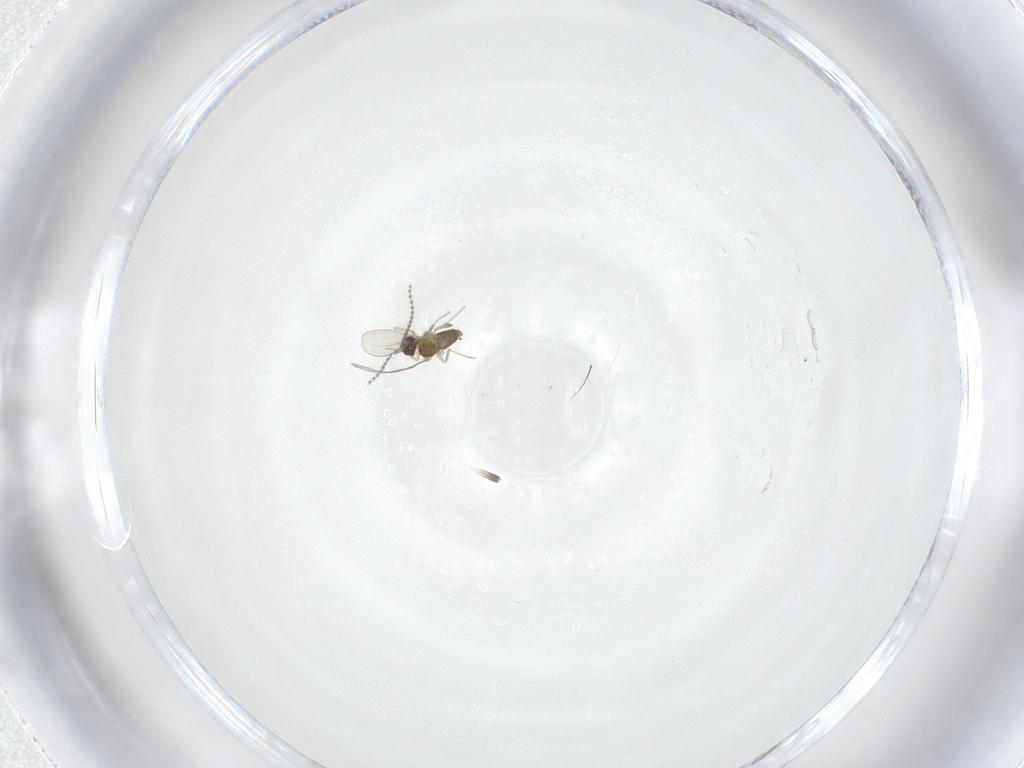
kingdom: Animalia
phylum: Arthropoda
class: Insecta
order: Diptera
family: Cecidomyiidae
